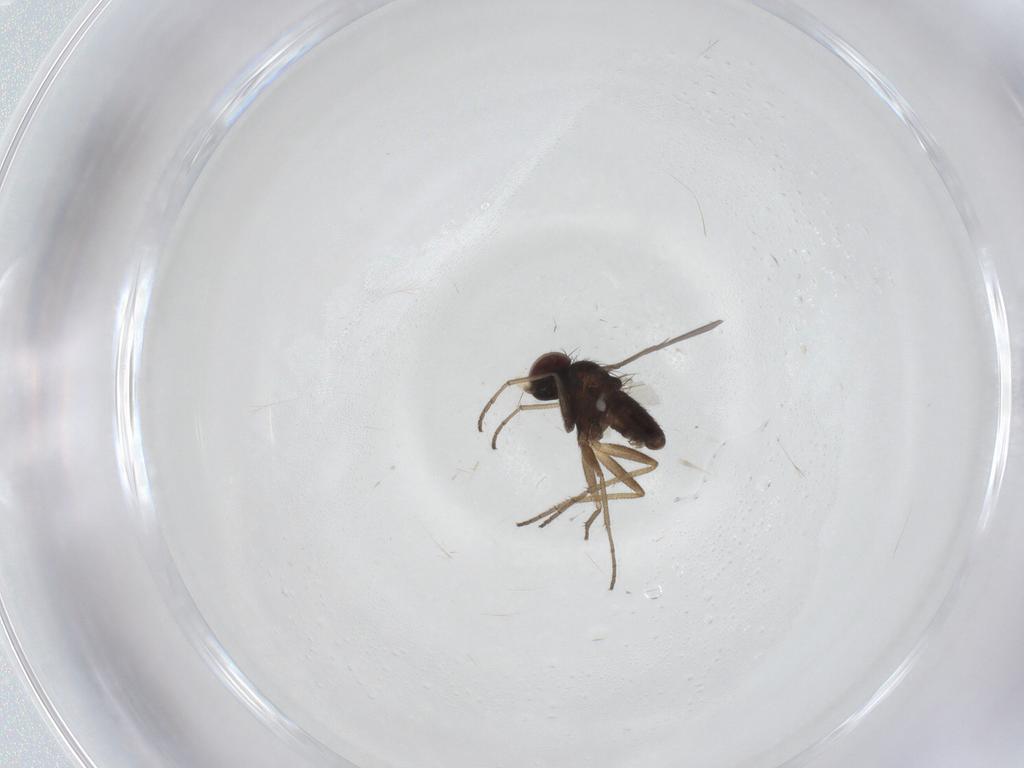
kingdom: Animalia
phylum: Arthropoda
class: Insecta
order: Diptera
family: Dolichopodidae
